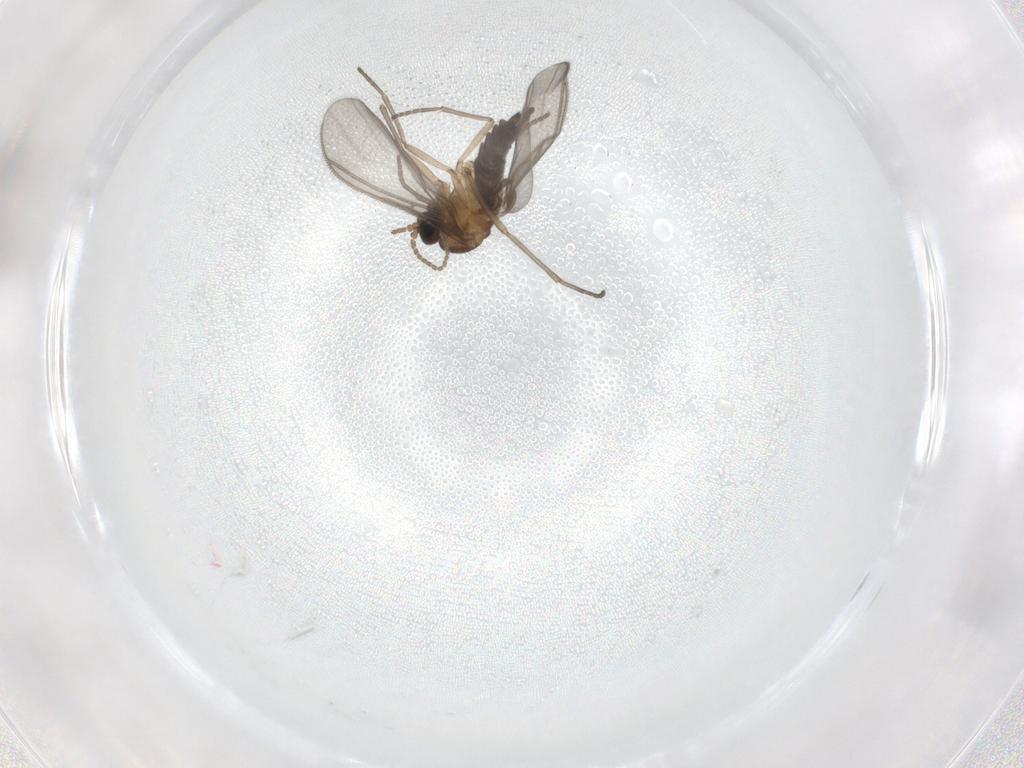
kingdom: Animalia
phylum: Arthropoda
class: Insecta
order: Diptera
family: Sciaridae
